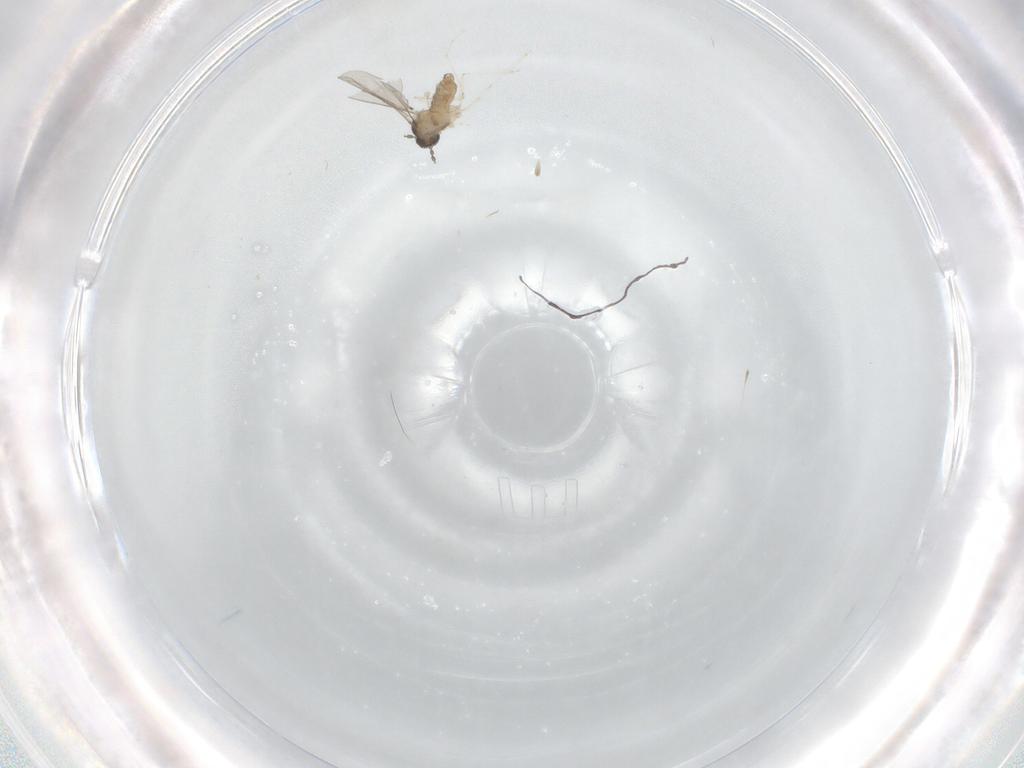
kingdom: Animalia
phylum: Arthropoda
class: Insecta
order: Diptera
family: Cecidomyiidae
